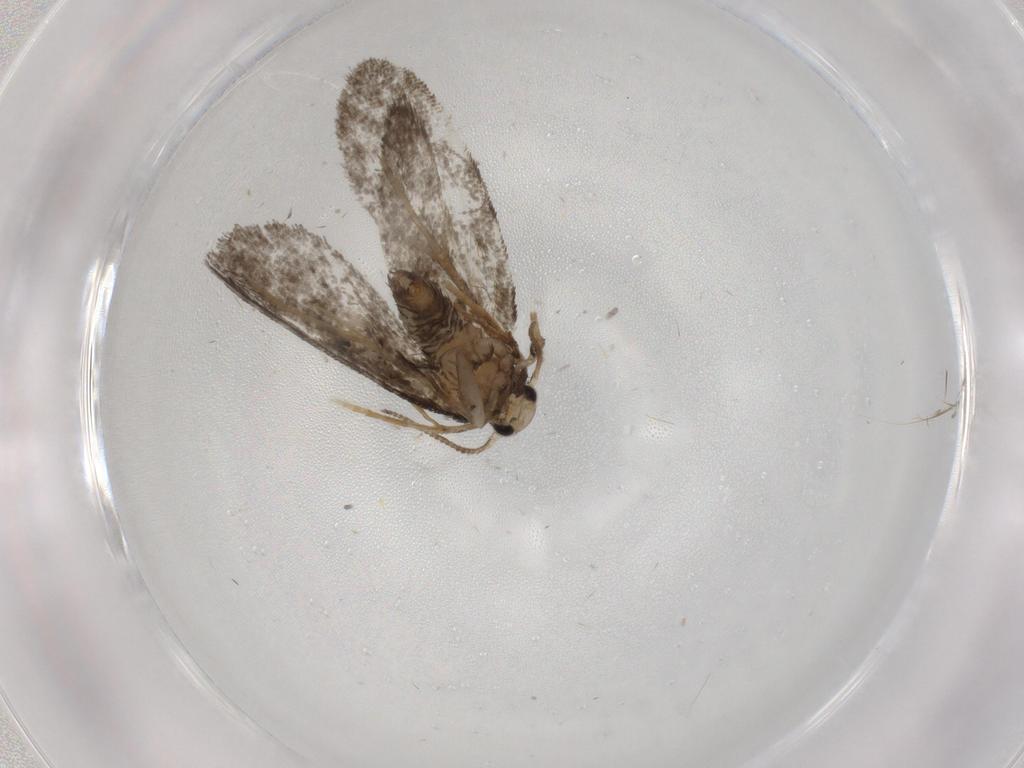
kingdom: Animalia
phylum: Arthropoda
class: Insecta
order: Lepidoptera
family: Psychidae
